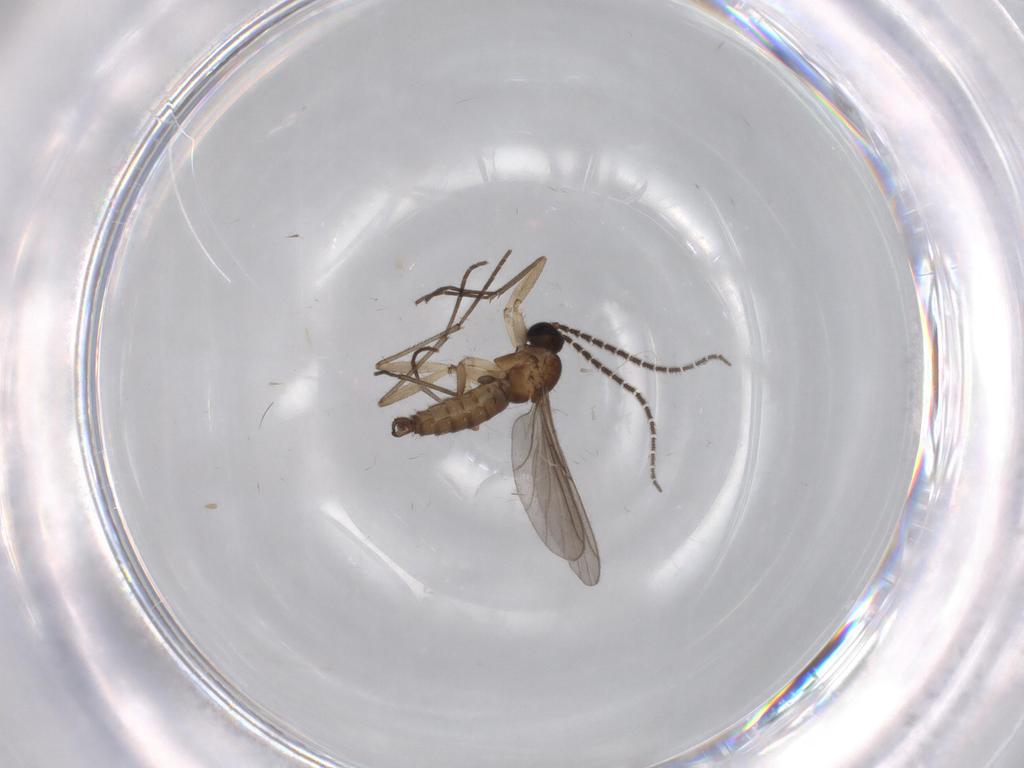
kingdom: Animalia
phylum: Arthropoda
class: Insecta
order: Diptera
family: Sciaridae
